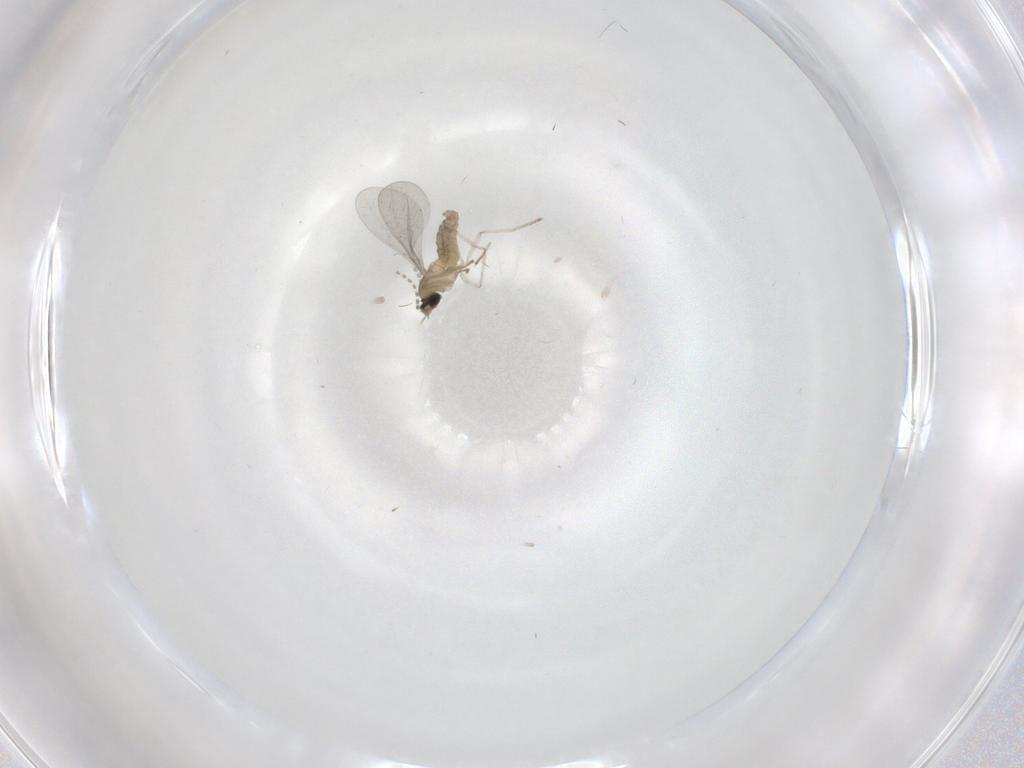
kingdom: Animalia
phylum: Arthropoda
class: Insecta
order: Diptera
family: Cecidomyiidae
